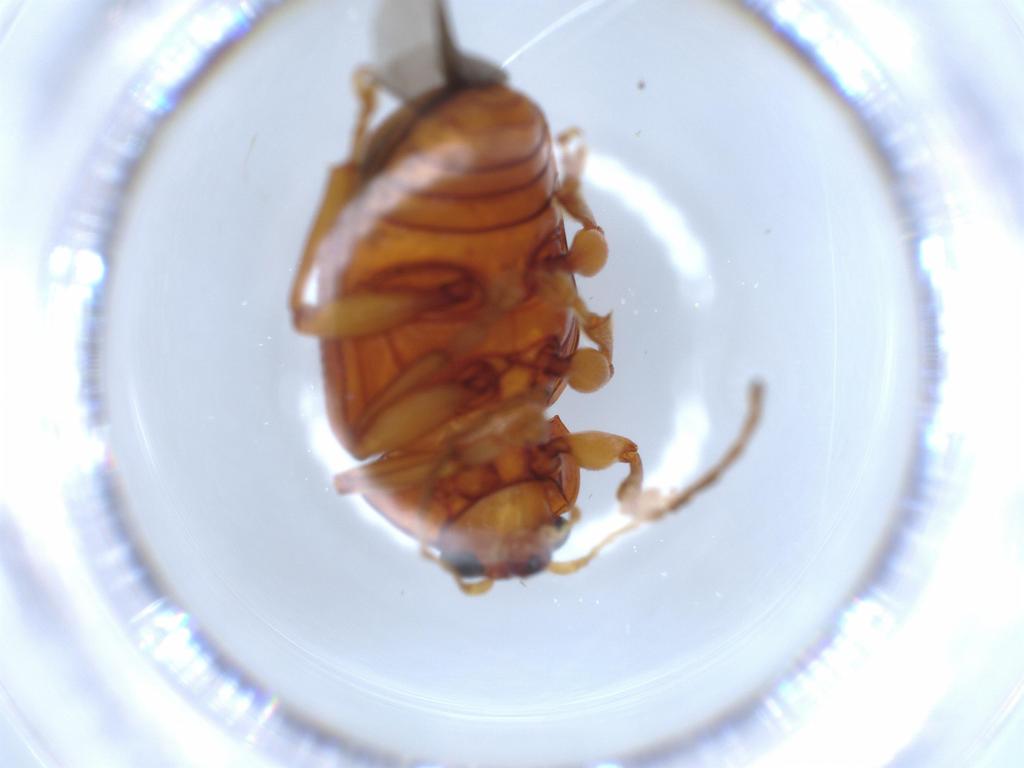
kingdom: Animalia
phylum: Arthropoda
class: Insecta
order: Coleoptera
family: Chrysomelidae
